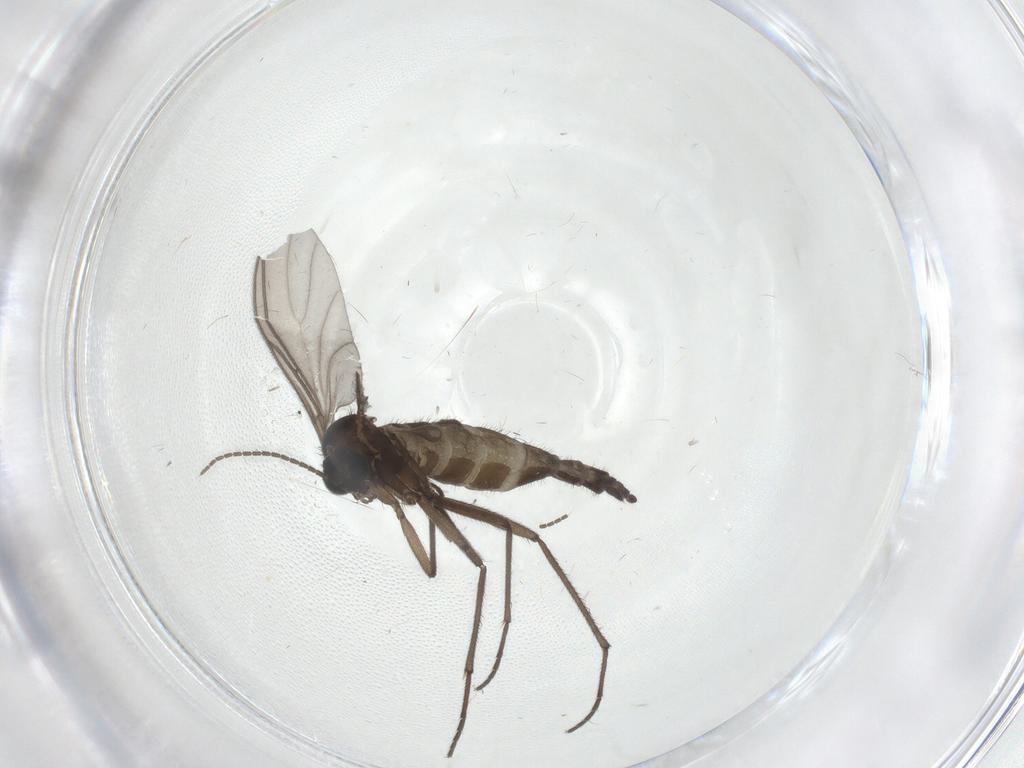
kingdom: Animalia
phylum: Arthropoda
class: Insecta
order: Diptera
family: Sciaridae
